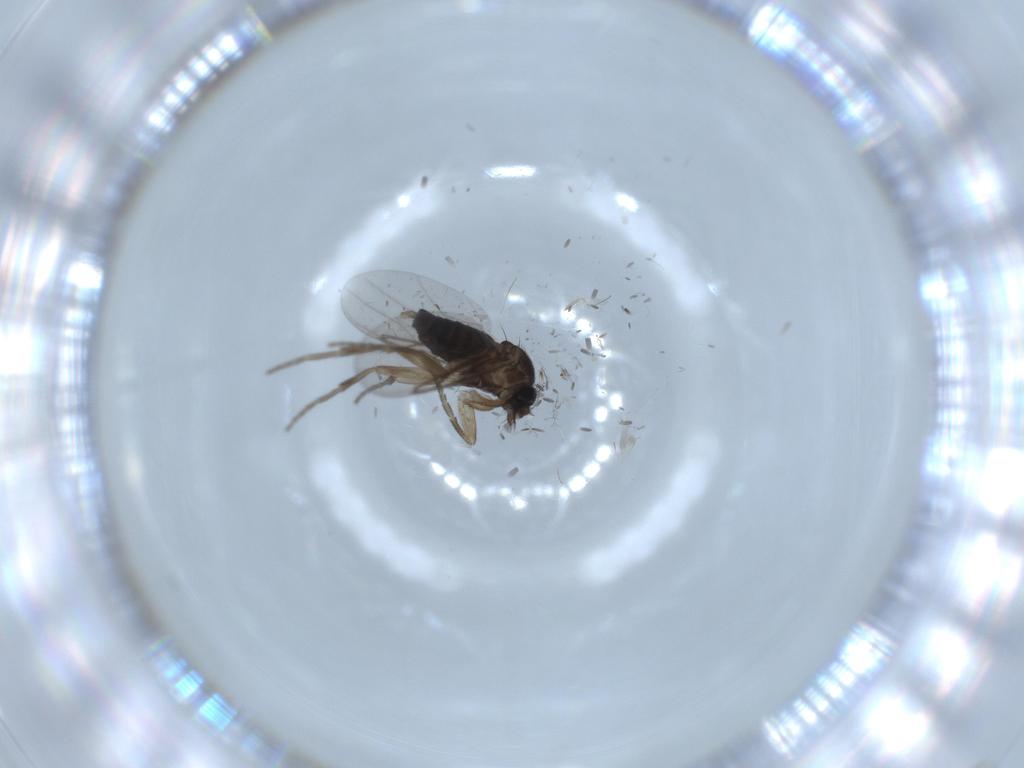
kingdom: Animalia
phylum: Arthropoda
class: Insecta
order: Diptera
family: Phoridae
